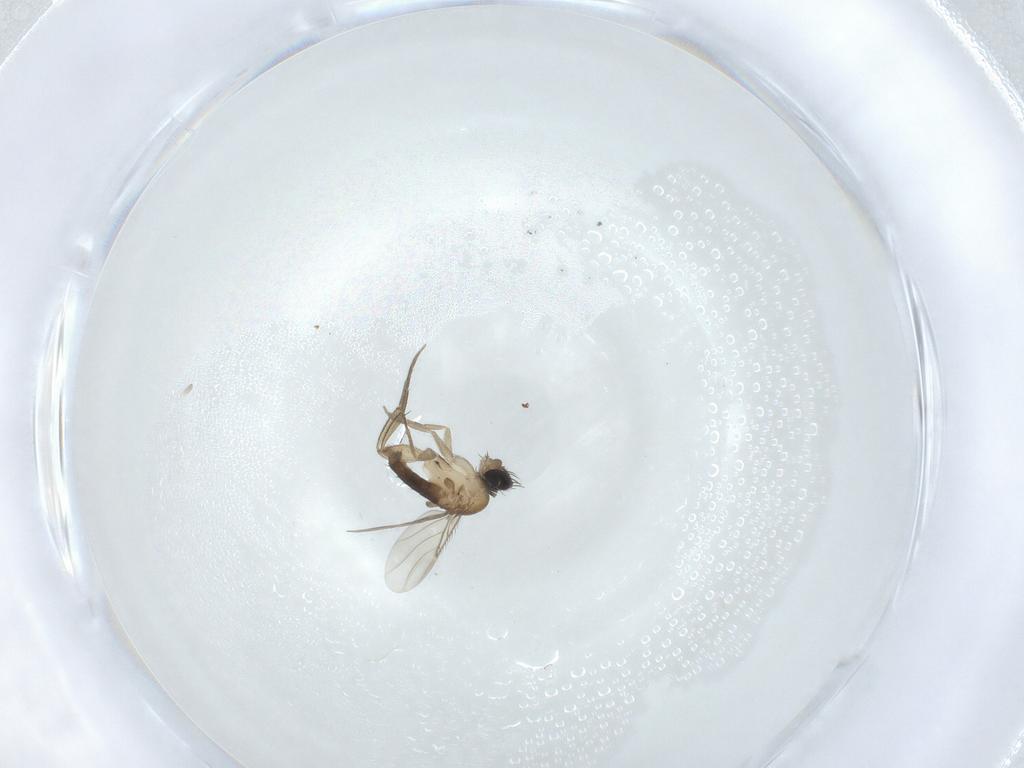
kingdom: Animalia
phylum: Arthropoda
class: Insecta
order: Diptera
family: Phoridae
